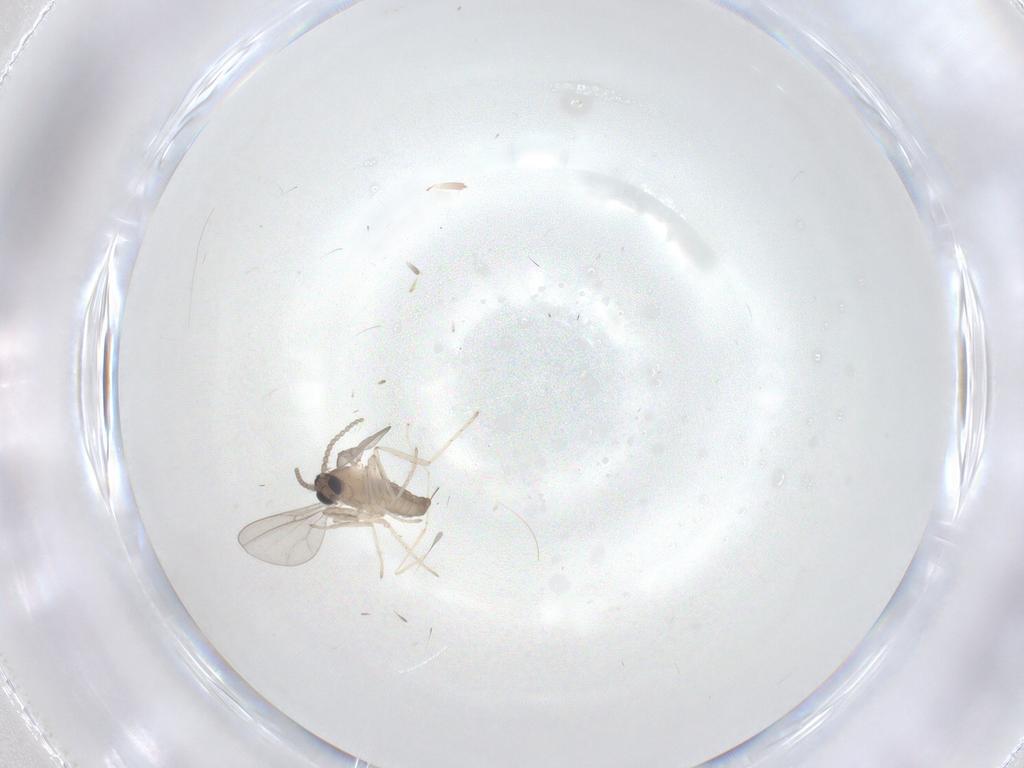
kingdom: Animalia
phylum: Arthropoda
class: Insecta
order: Diptera
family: Cecidomyiidae
